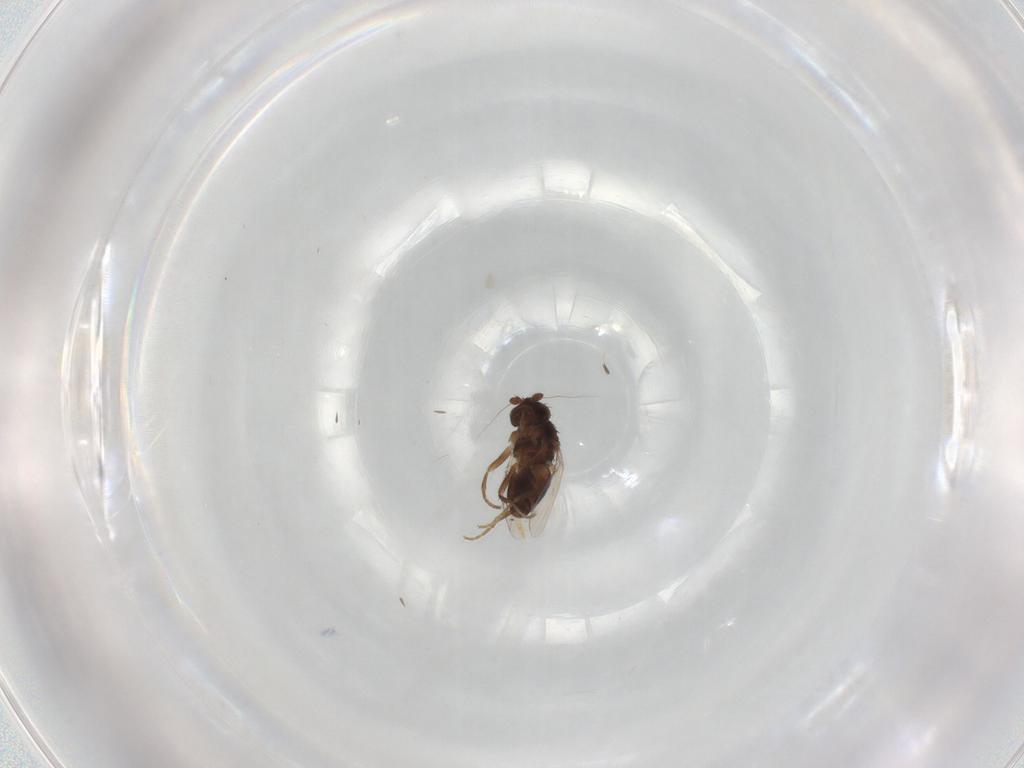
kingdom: Animalia
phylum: Arthropoda
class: Insecta
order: Diptera
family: Sphaeroceridae
